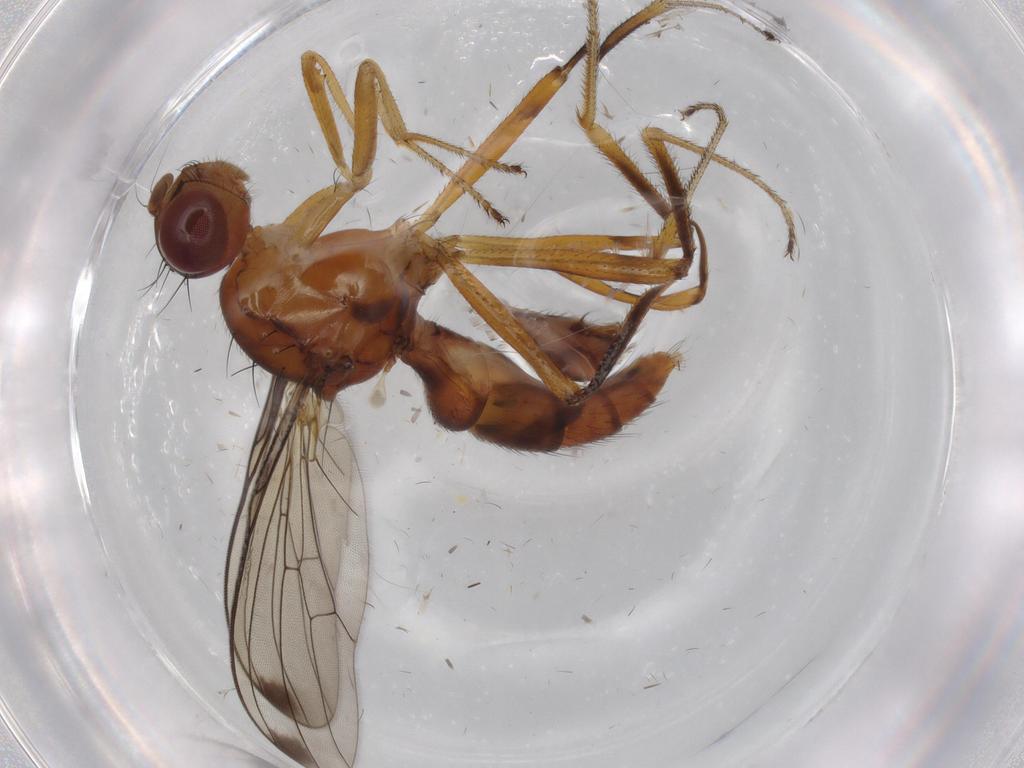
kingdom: Animalia
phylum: Arthropoda
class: Insecta
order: Diptera
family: Sepsidae
